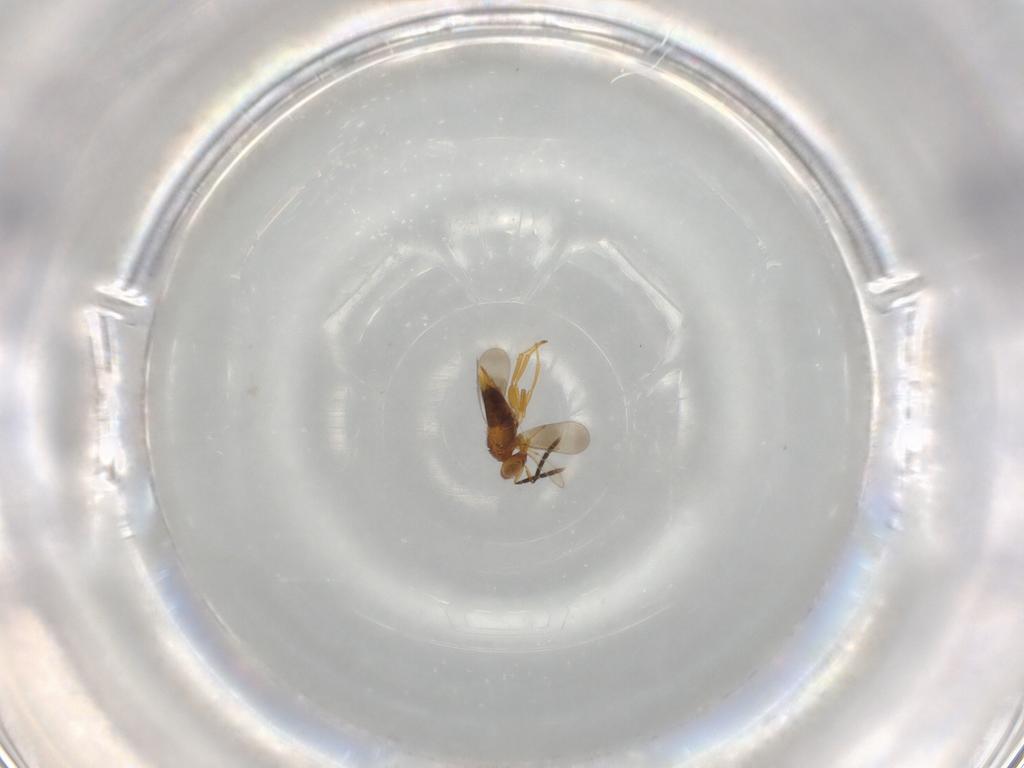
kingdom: Animalia
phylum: Arthropoda
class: Insecta
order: Hymenoptera
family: Aphelinidae
